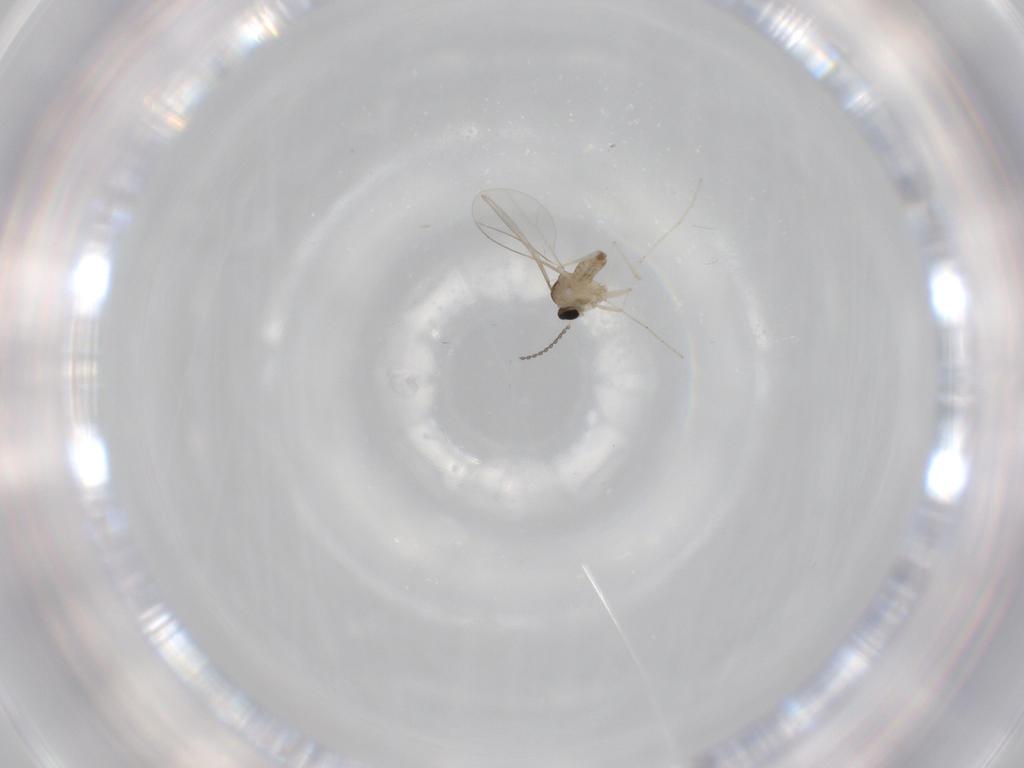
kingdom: Animalia
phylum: Arthropoda
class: Insecta
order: Diptera
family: Cecidomyiidae
